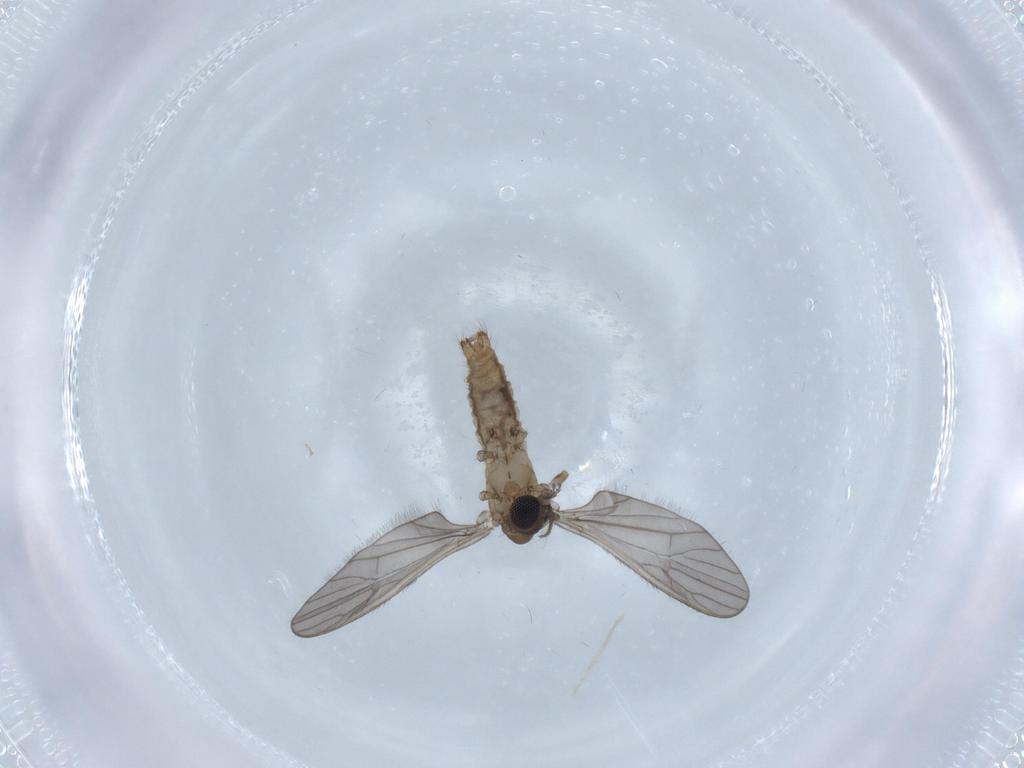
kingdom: Animalia
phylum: Arthropoda
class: Insecta
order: Diptera
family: Limoniidae
